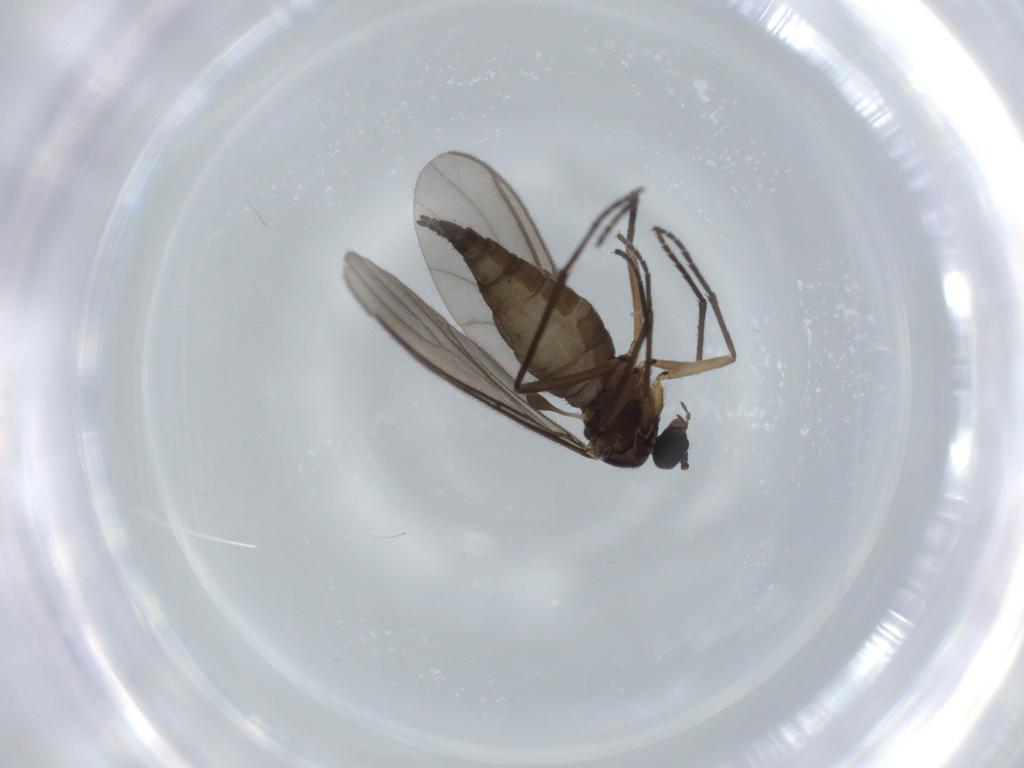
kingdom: Animalia
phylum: Arthropoda
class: Insecta
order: Diptera
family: Sciaridae
